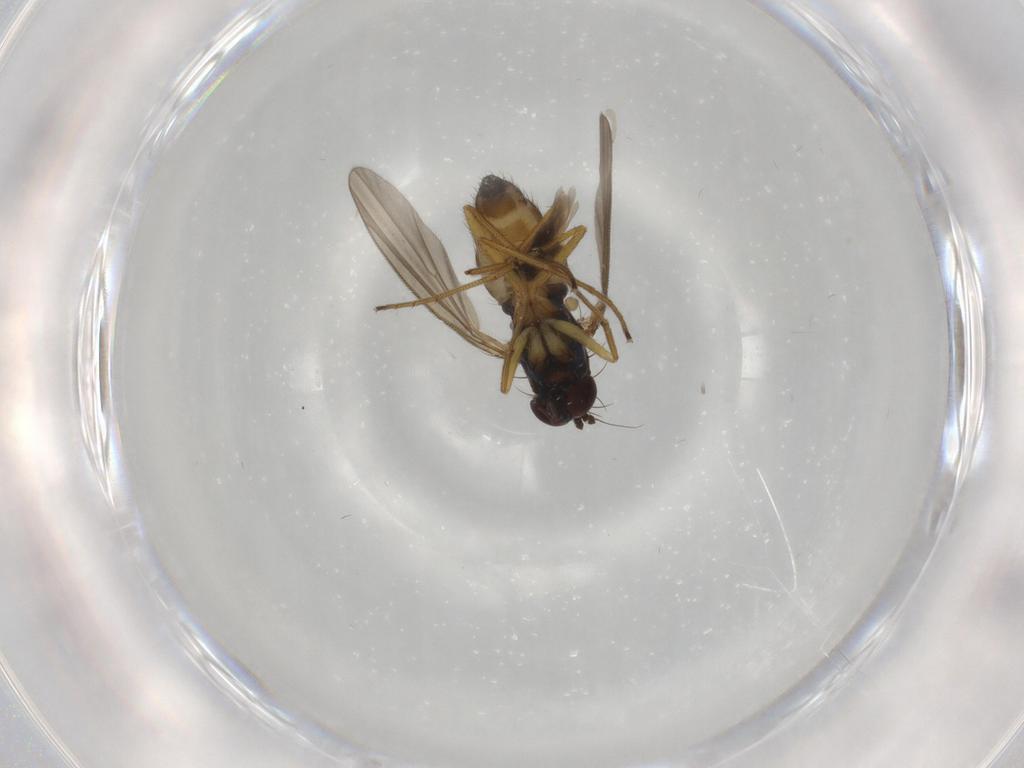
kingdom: Animalia
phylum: Arthropoda
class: Insecta
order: Diptera
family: Dolichopodidae
